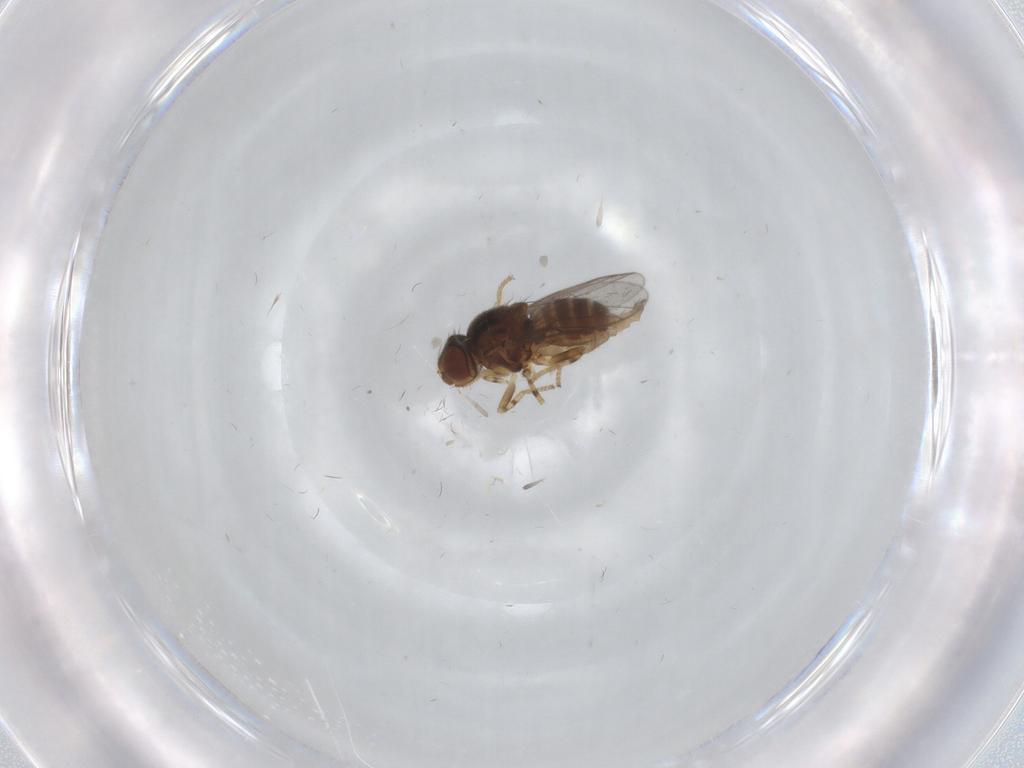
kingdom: Animalia
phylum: Arthropoda
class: Insecta
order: Diptera
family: Chloropidae
